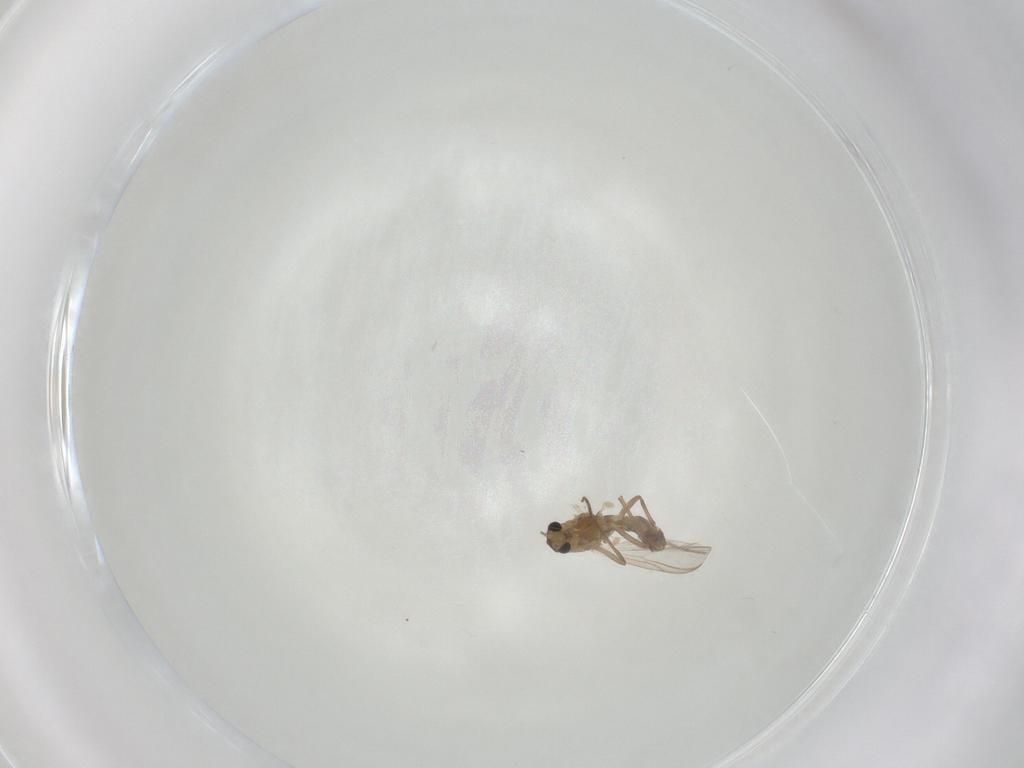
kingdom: Animalia
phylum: Arthropoda
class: Insecta
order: Diptera
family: Chironomidae
